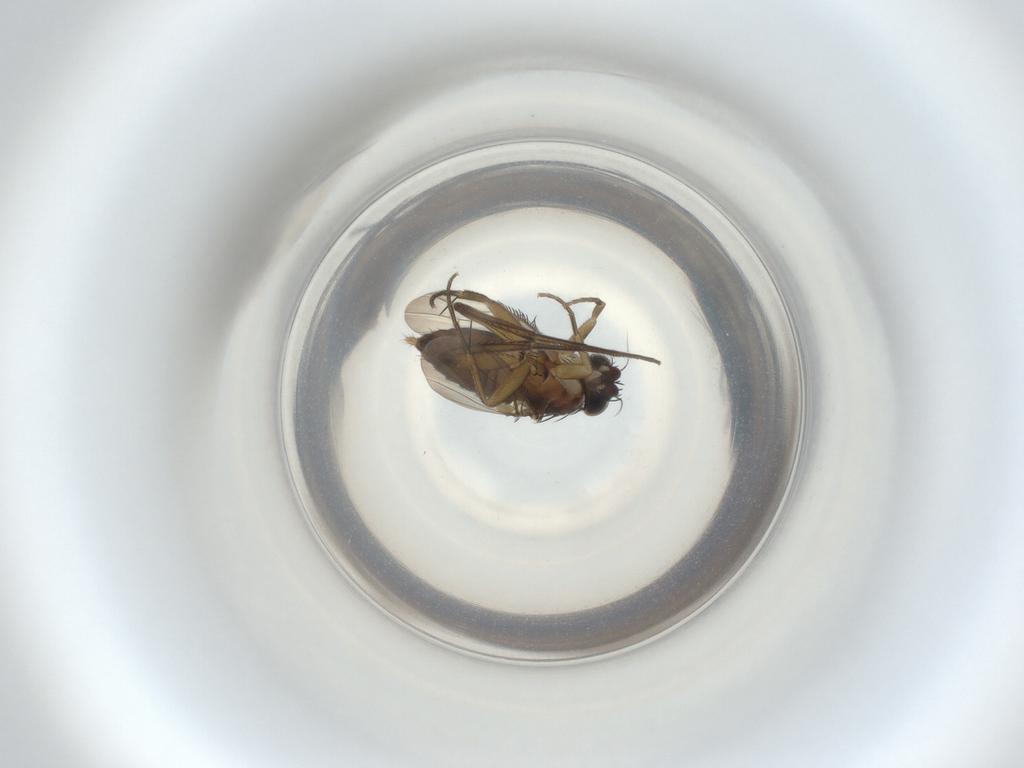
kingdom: Animalia
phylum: Arthropoda
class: Insecta
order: Diptera
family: Phoridae
